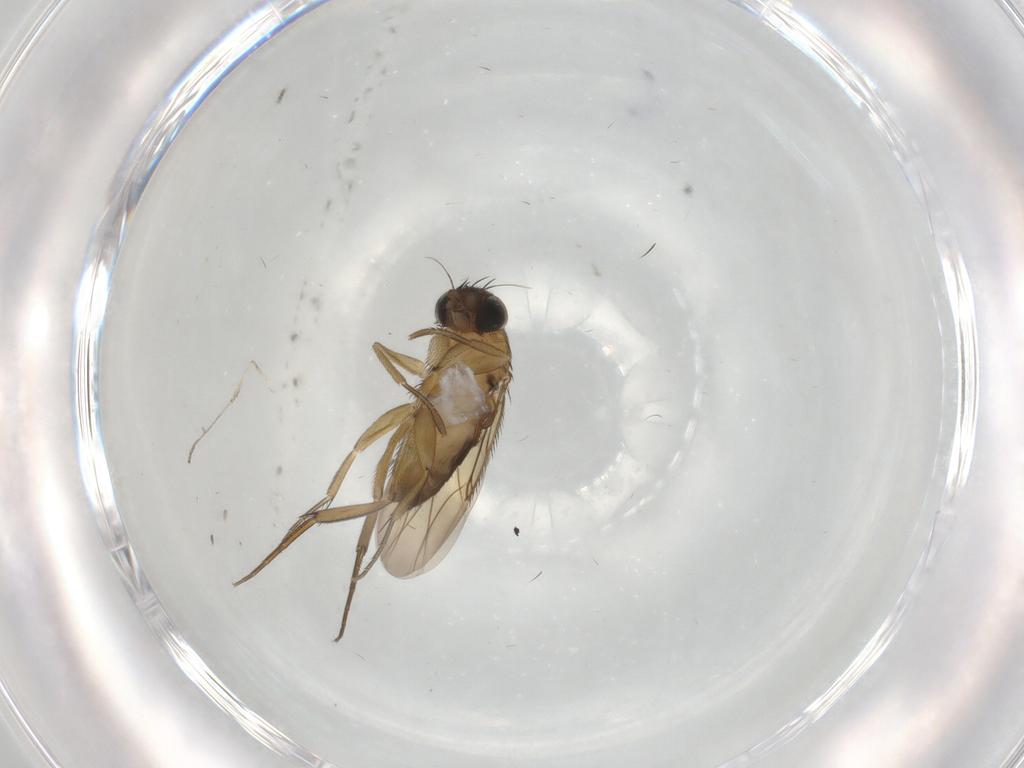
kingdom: Animalia
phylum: Arthropoda
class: Insecta
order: Diptera
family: Phoridae
